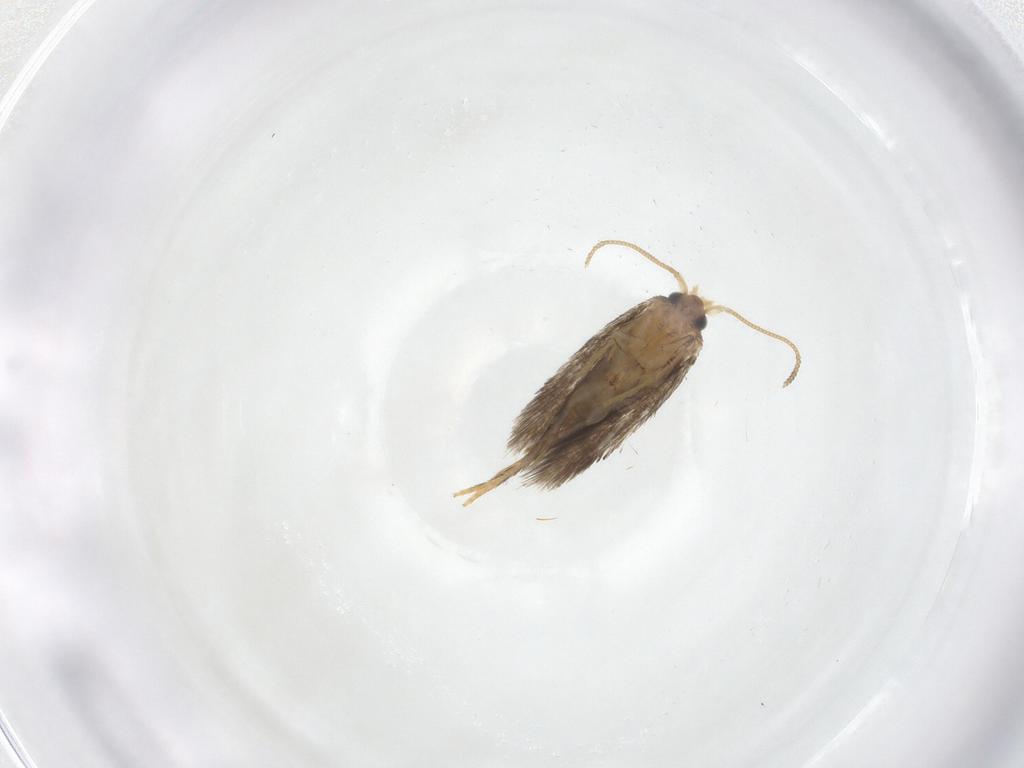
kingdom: Animalia
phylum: Arthropoda
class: Insecta
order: Lepidoptera
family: Nepticulidae
